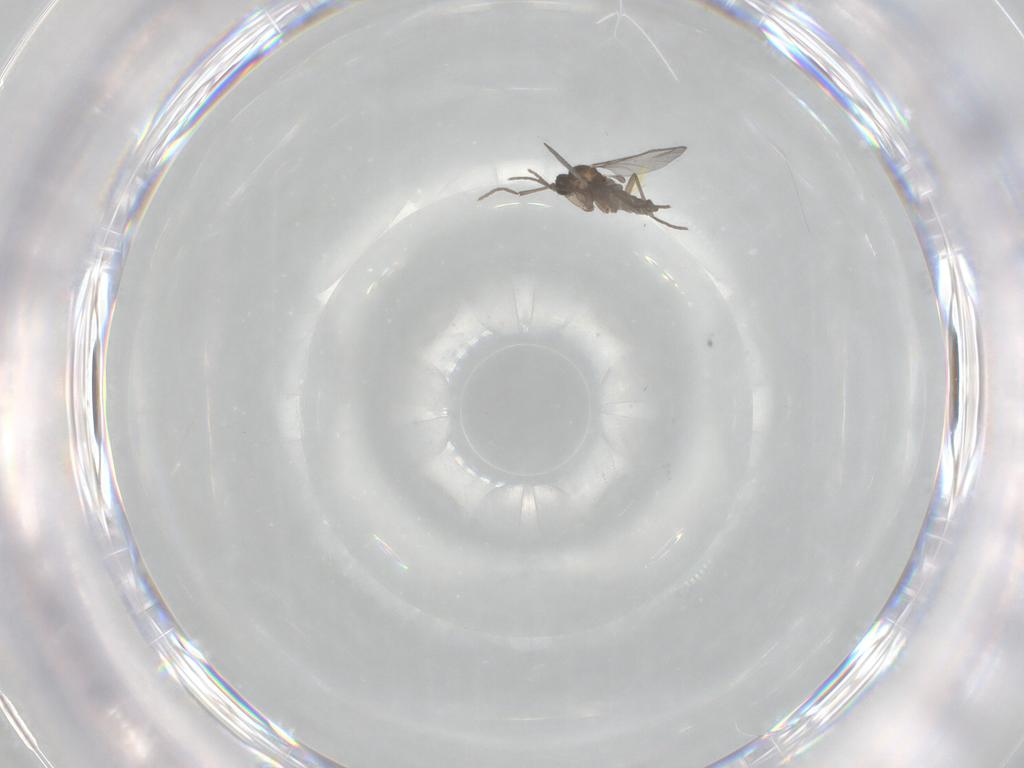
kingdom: Animalia
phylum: Arthropoda
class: Insecta
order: Diptera
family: Sciaridae
